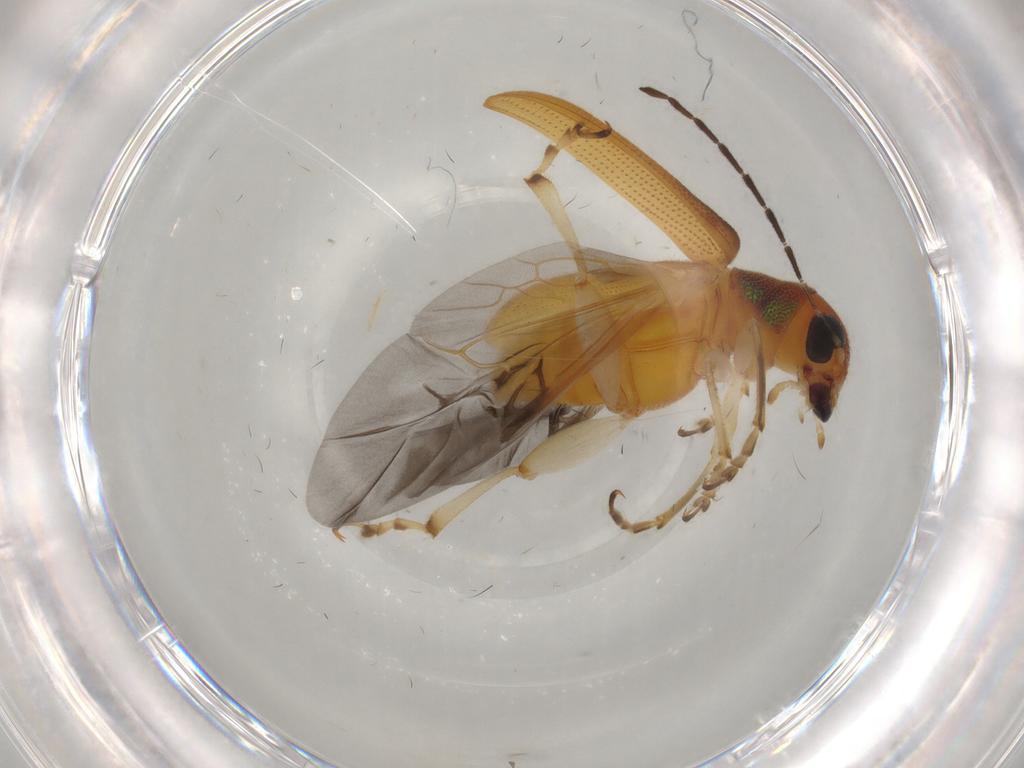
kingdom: Animalia
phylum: Arthropoda
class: Insecta
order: Coleoptera
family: Chrysomelidae
